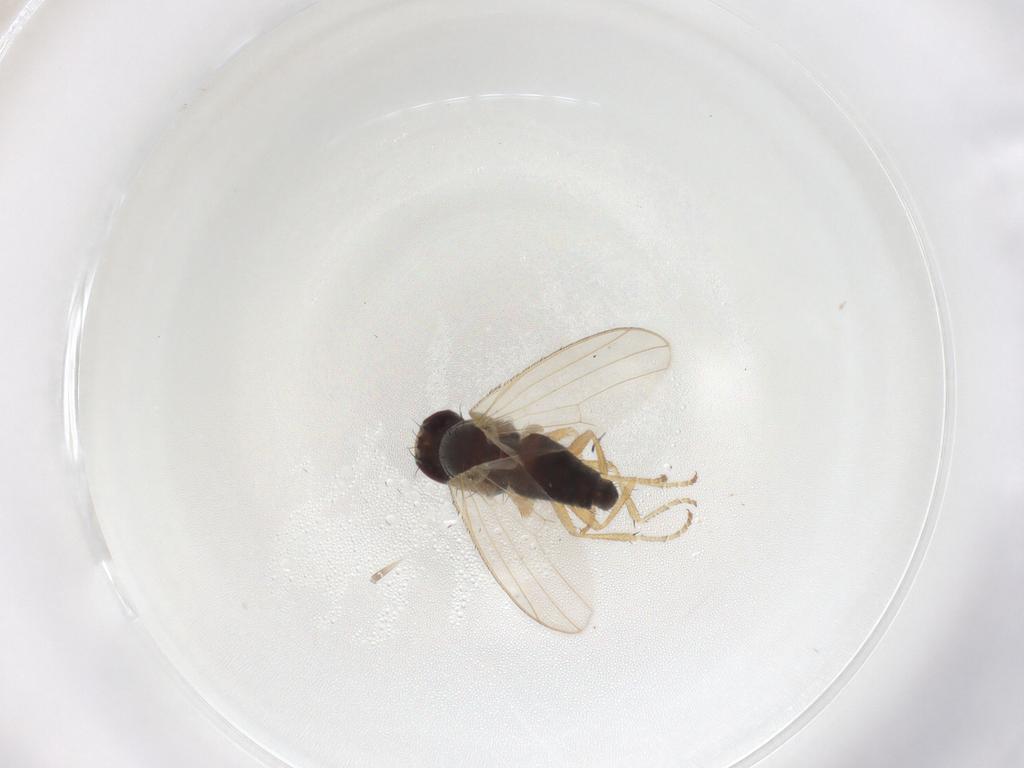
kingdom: Animalia
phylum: Arthropoda
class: Insecta
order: Diptera
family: Heleomyzidae
